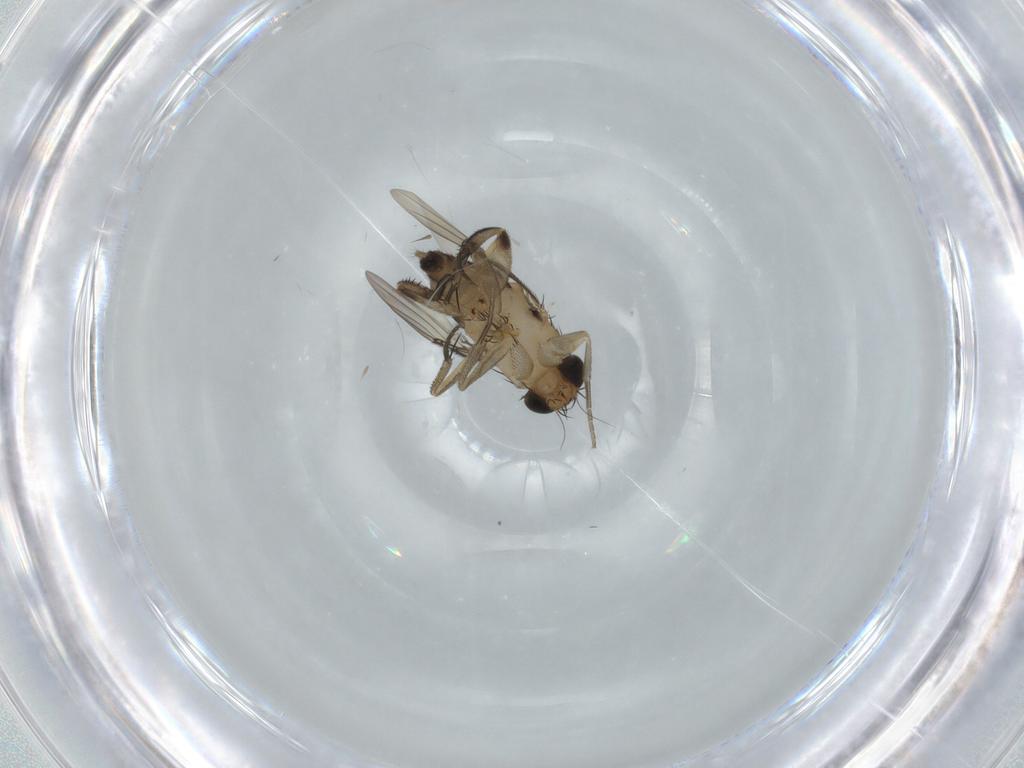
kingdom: Animalia
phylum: Arthropoda
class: Insecta
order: Diptera
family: Phoridae
